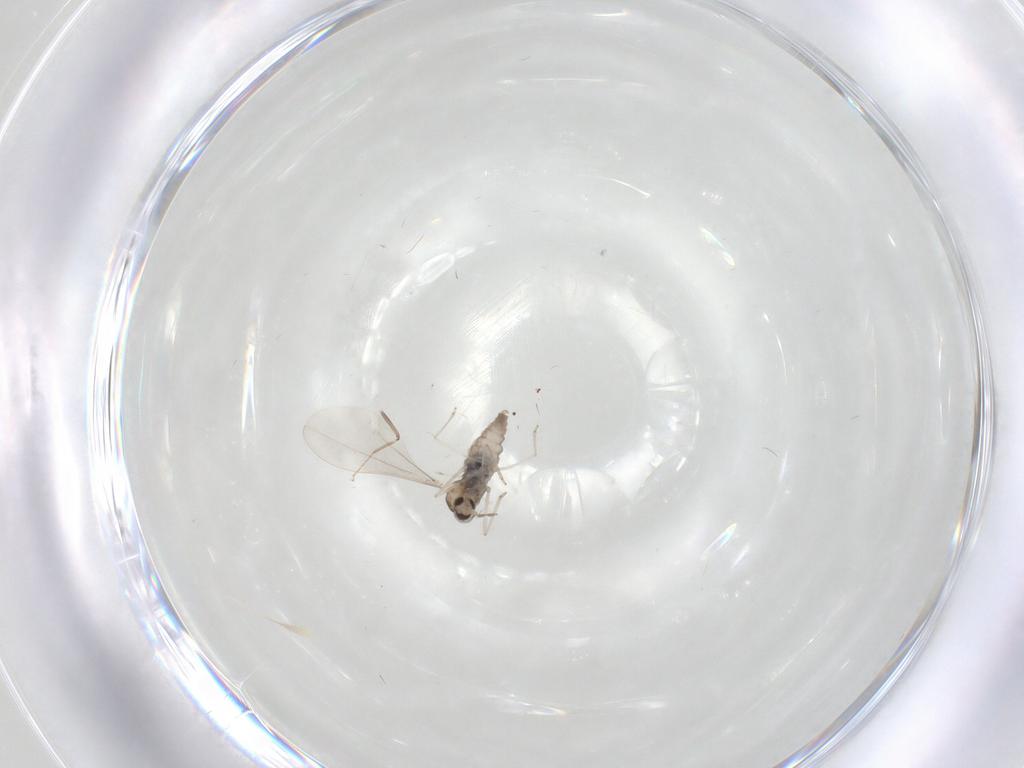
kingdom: Animalia
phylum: Arthropoda
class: Insecta
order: Diptera
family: Cecidomyiidae
